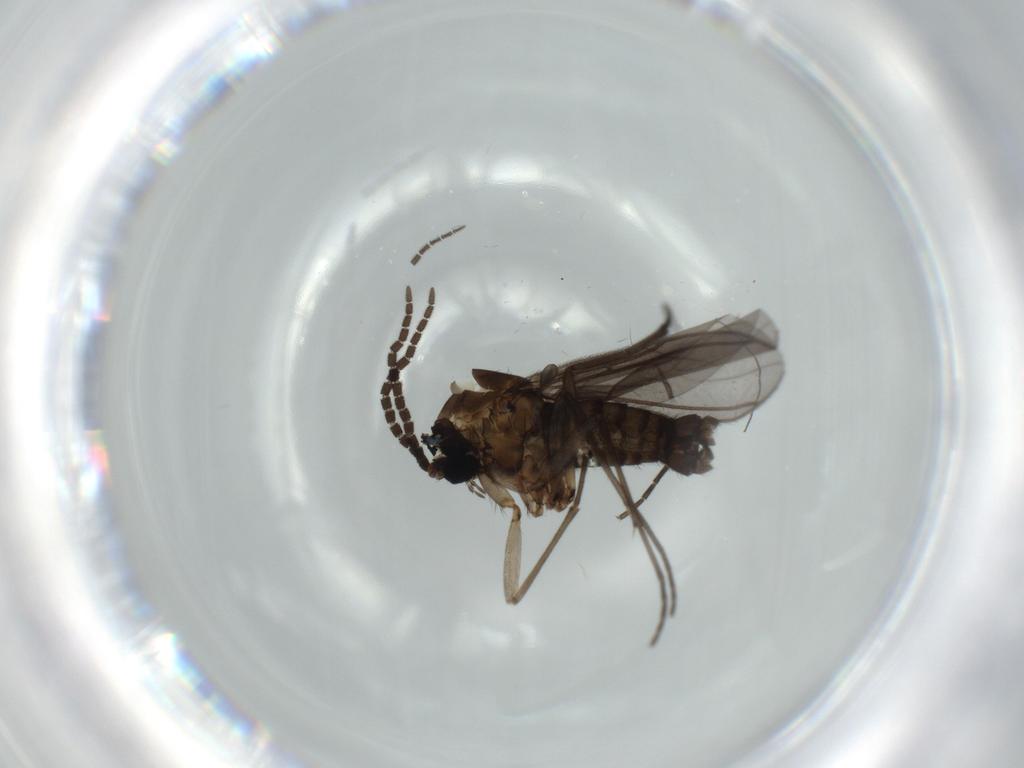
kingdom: Animalia
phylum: Arthropoda
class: Insecta
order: Diptera
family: Sciaridae
